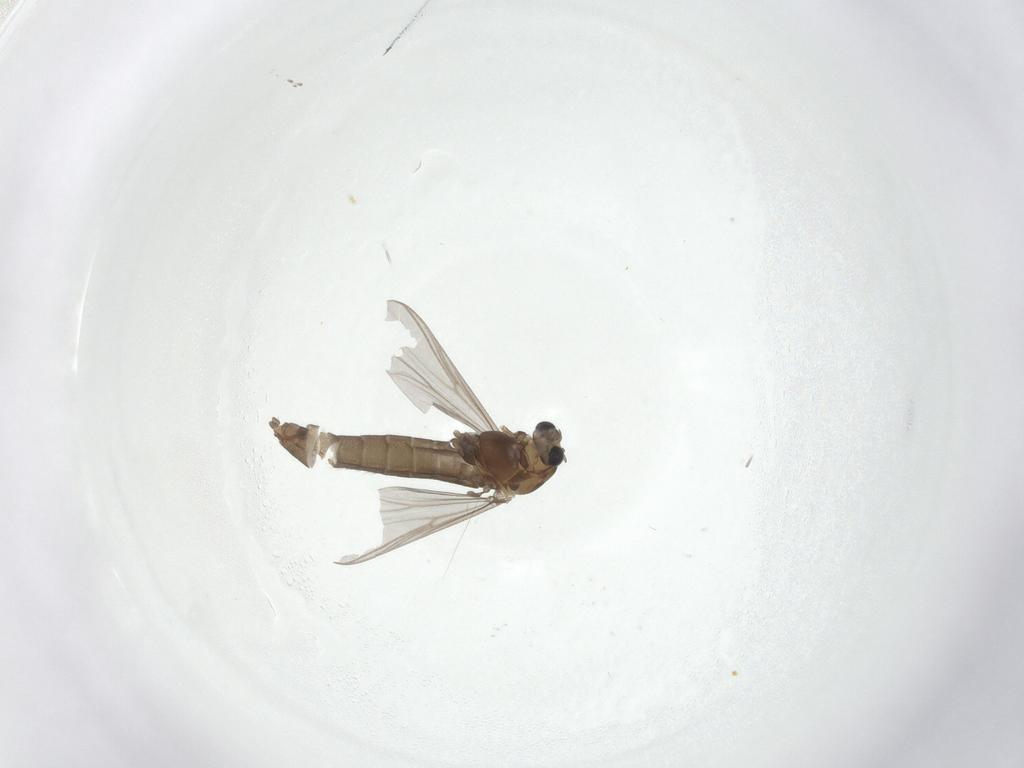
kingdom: Animalia
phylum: Arthropoda
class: Insecta
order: Diptera
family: Chironomidae
